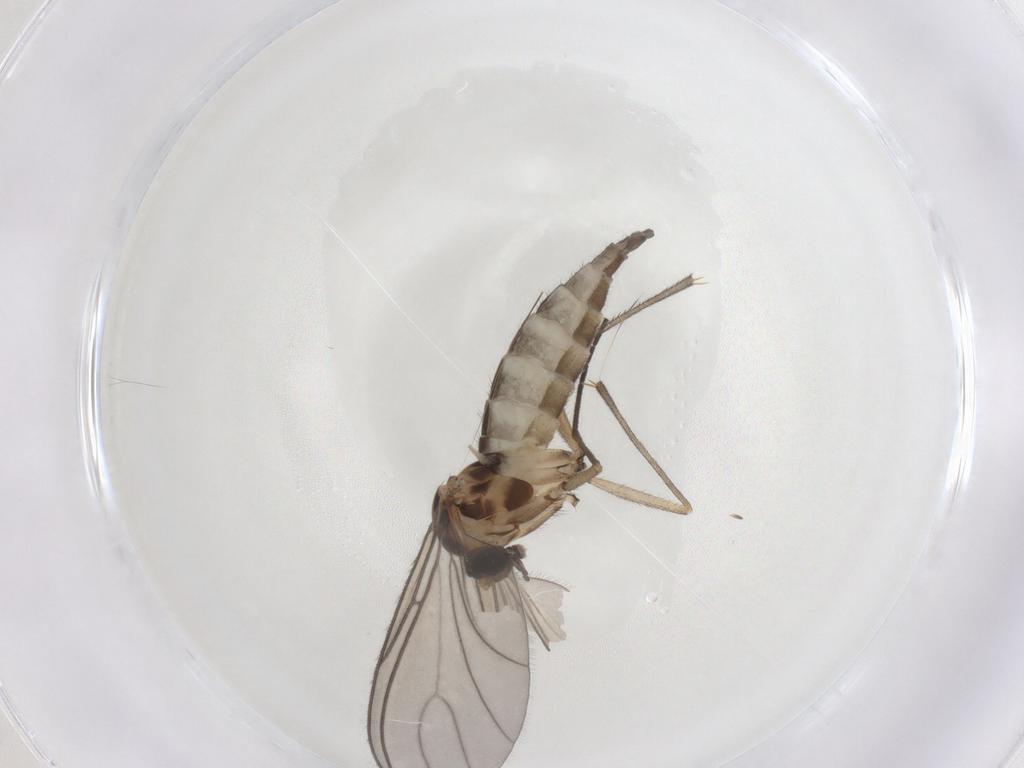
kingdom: Animalia
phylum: Arthropoda
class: Insecta
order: Diptera
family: Sciaridae
